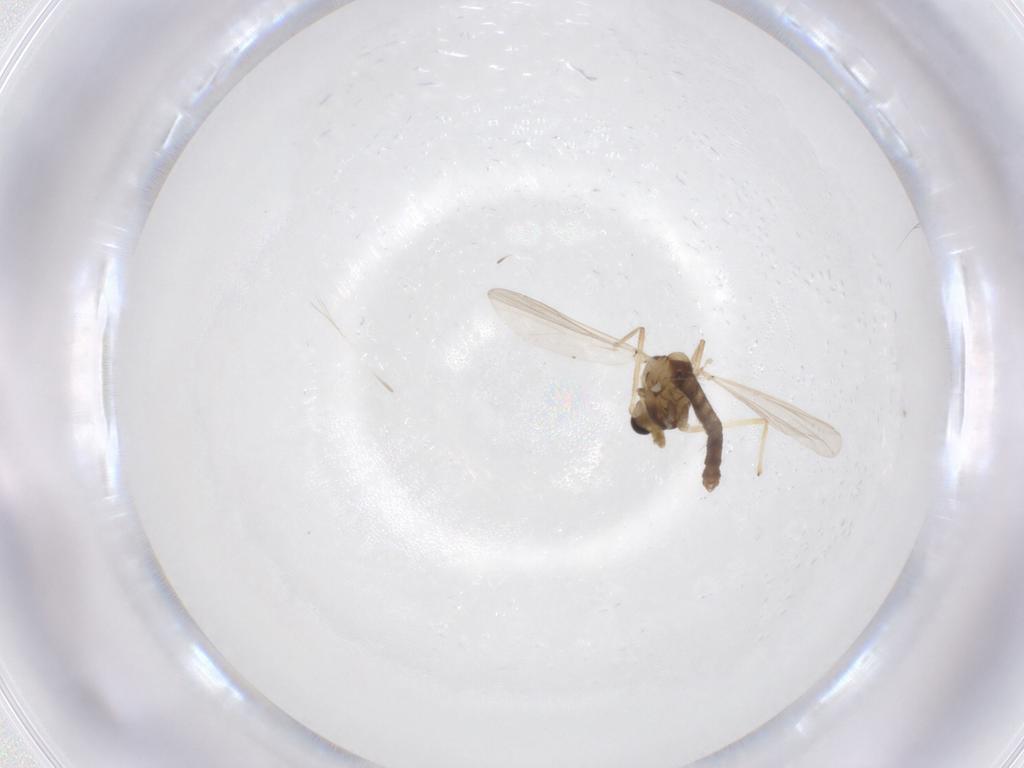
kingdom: Animalia
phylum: Arthropoda
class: Insecta
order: Diptera
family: Chironomidae
